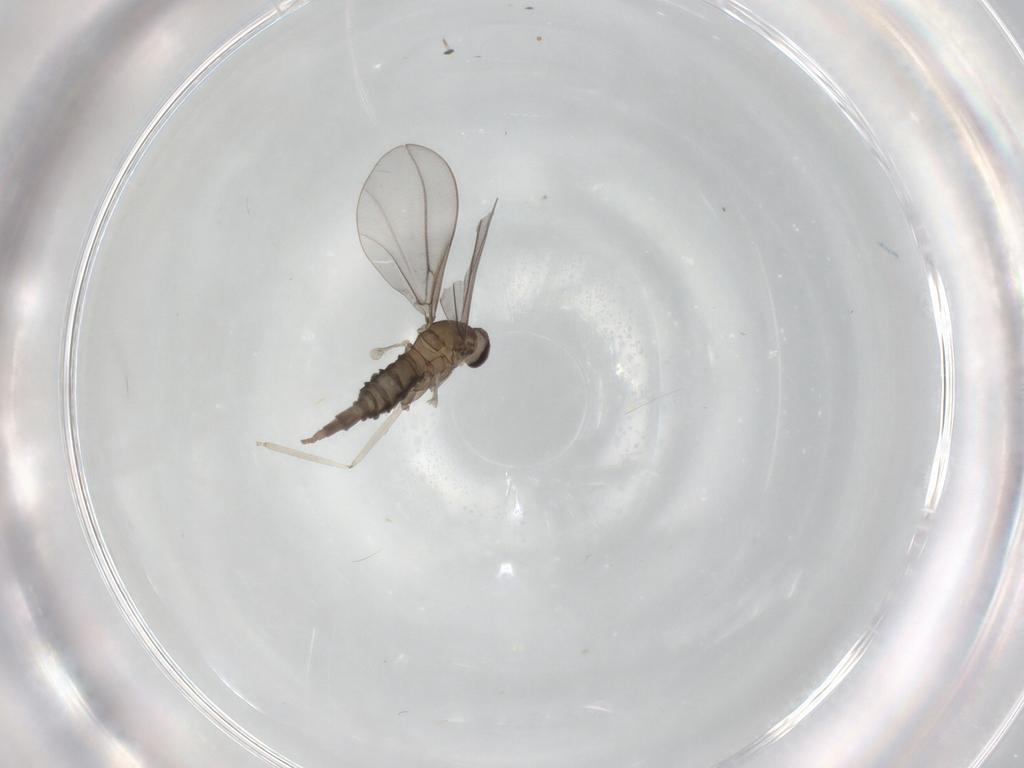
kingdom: Animalia
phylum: Arthropoda
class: Insecta
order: Diptera
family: Cecidomyiidae
